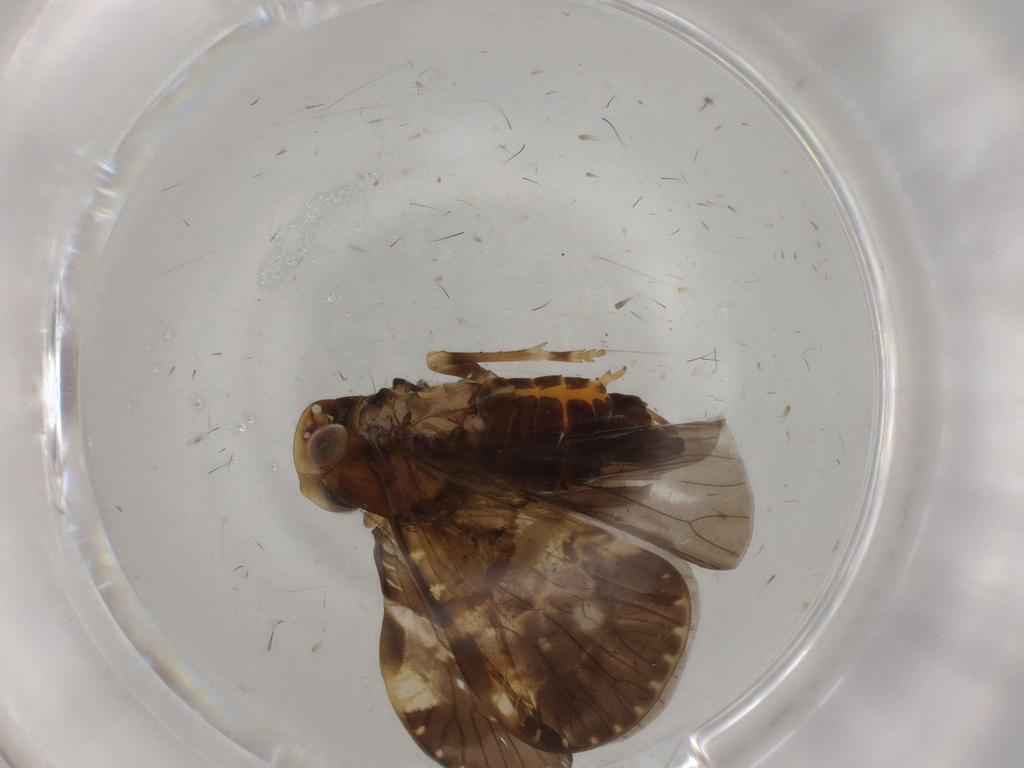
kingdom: Animalia
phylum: Arthropoda
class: Insecta
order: Hemiptera
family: Cixiidae
